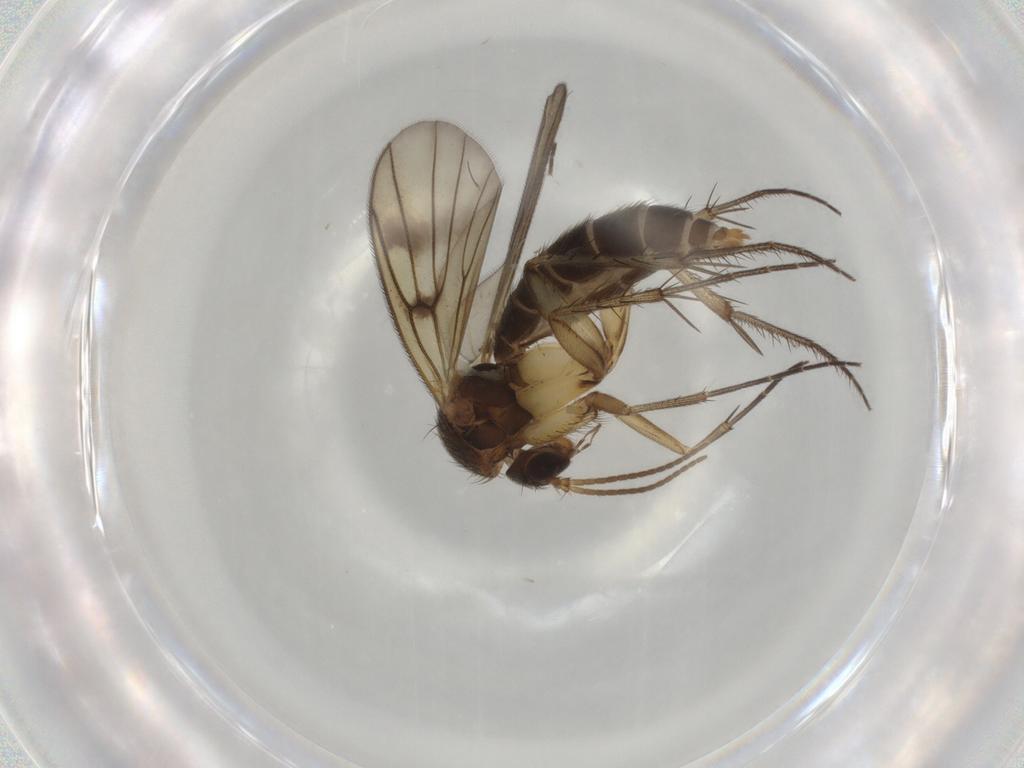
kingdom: Animalia
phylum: Arthropoda
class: Insecta
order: Diptera
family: Mycetophilidae
